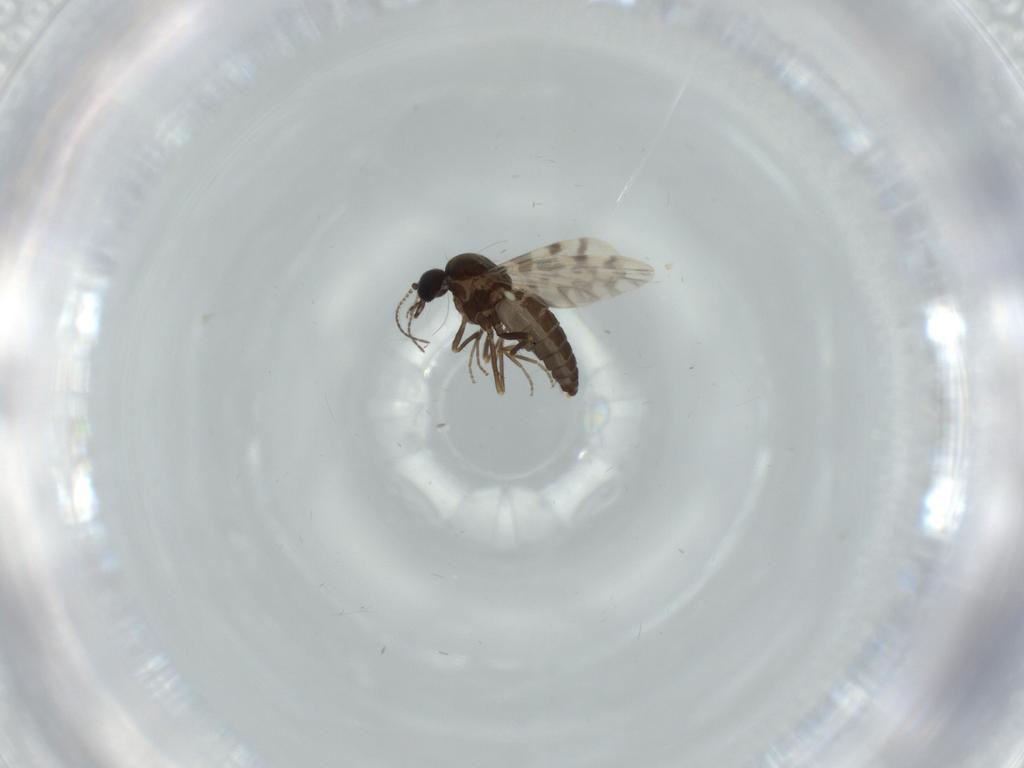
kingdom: Animalia
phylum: Arthropoda
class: Insecta
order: Diptera
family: Ceratopogonidae
